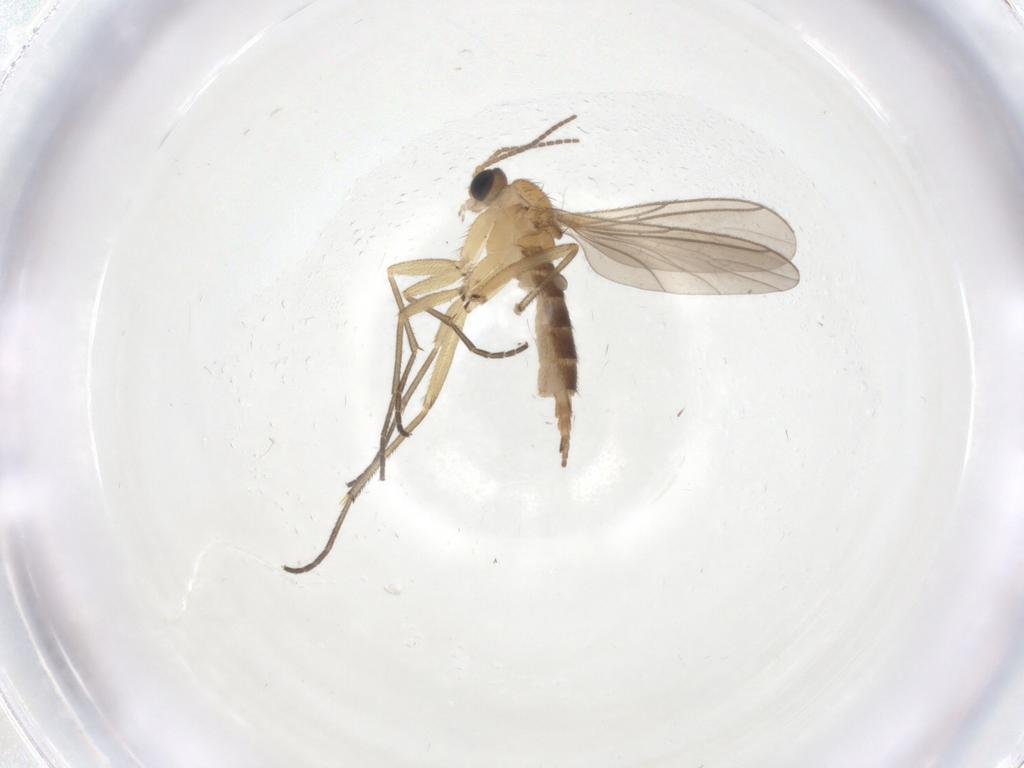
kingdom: Animalia
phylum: Arthropoda
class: Insecta
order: Diptera
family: Sciaridae
